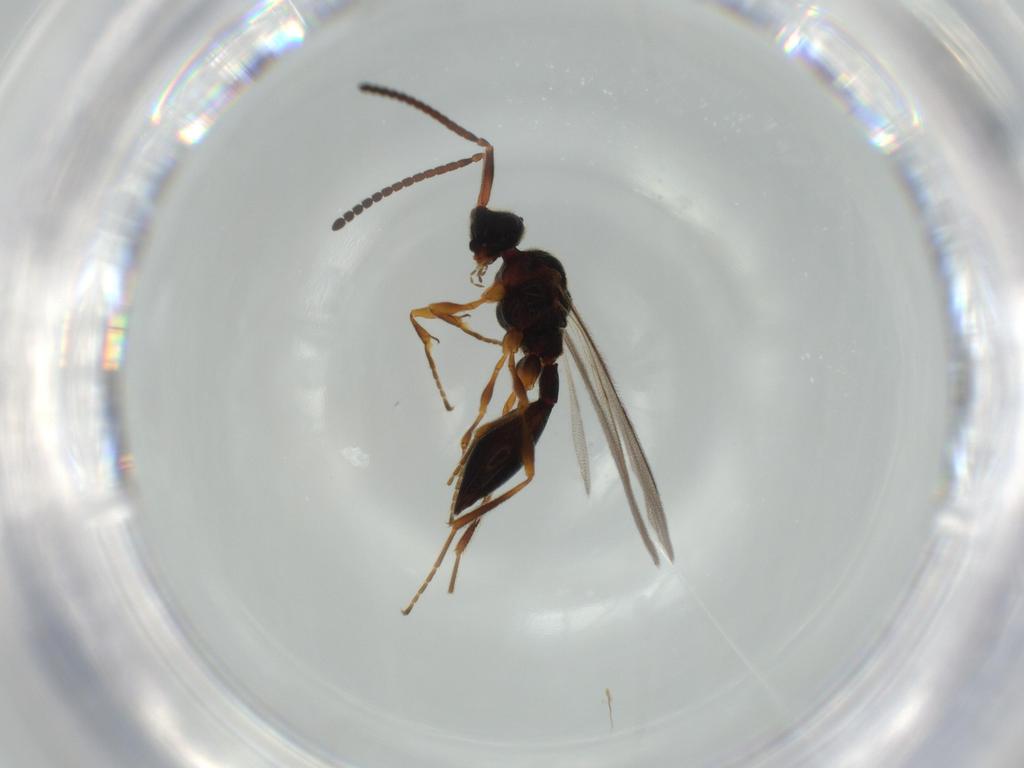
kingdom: Animalia
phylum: Arthropoda
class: Insecta
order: Hymenoptera
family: Diapriidae
